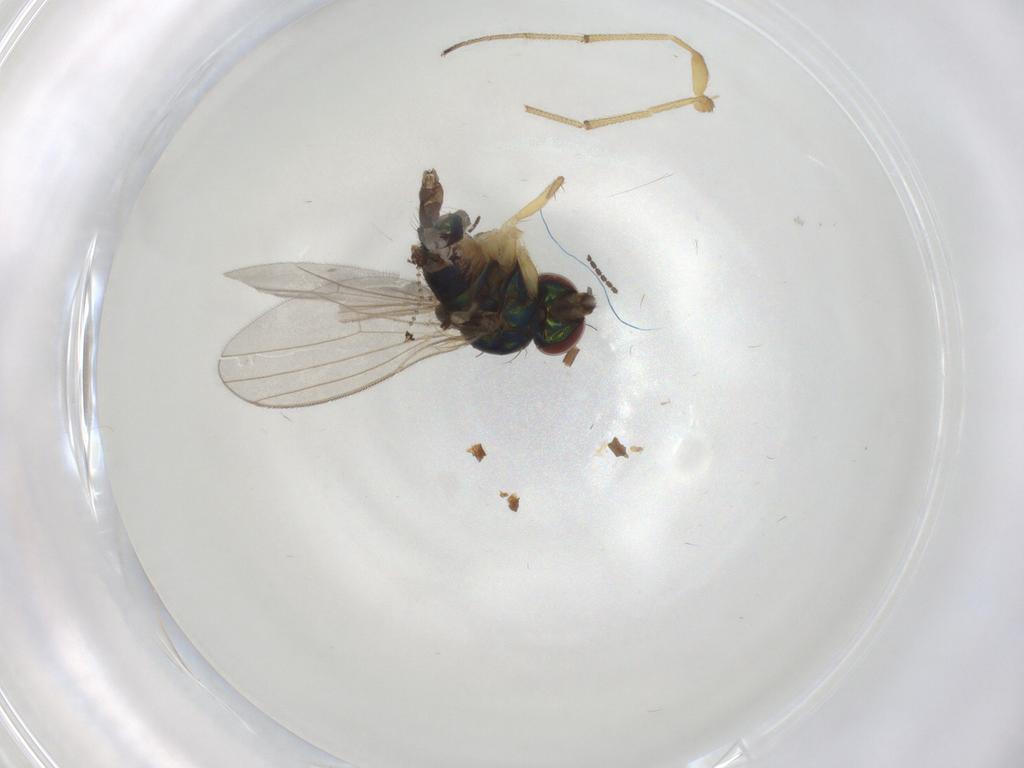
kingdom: Animalia
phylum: Arthropoda
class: Insecta
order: Diptera
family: Dolichopodidae
